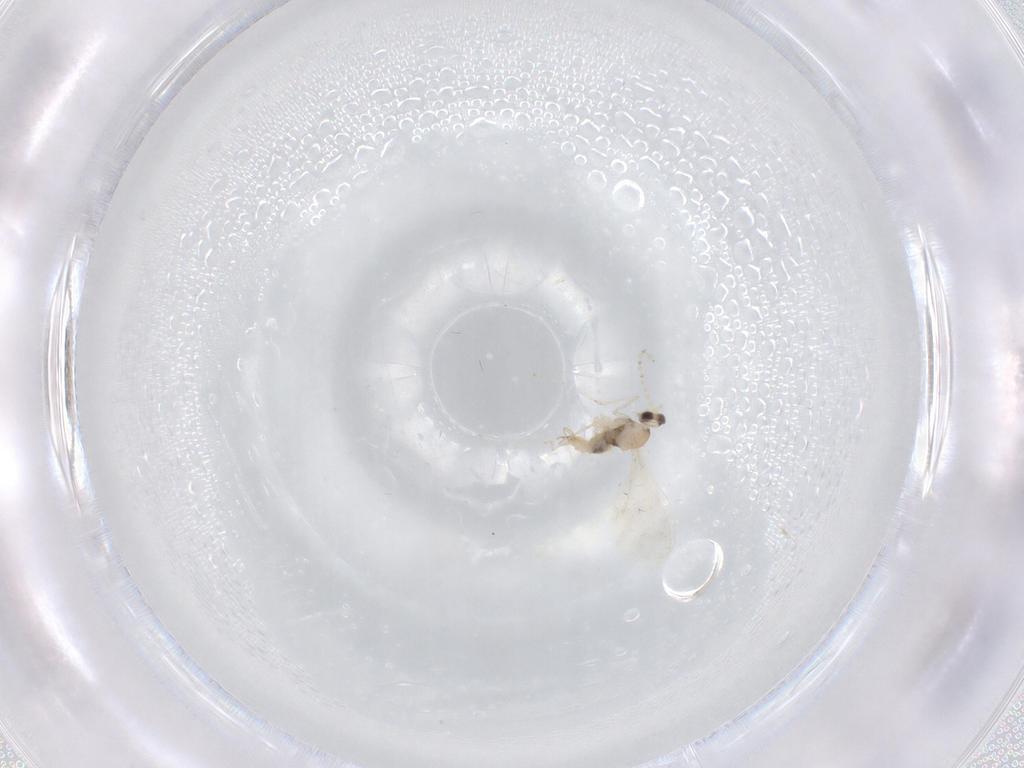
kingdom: Animalia
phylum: Arthropoda
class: Insecta
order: Diptera
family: Cecidomyiidae
